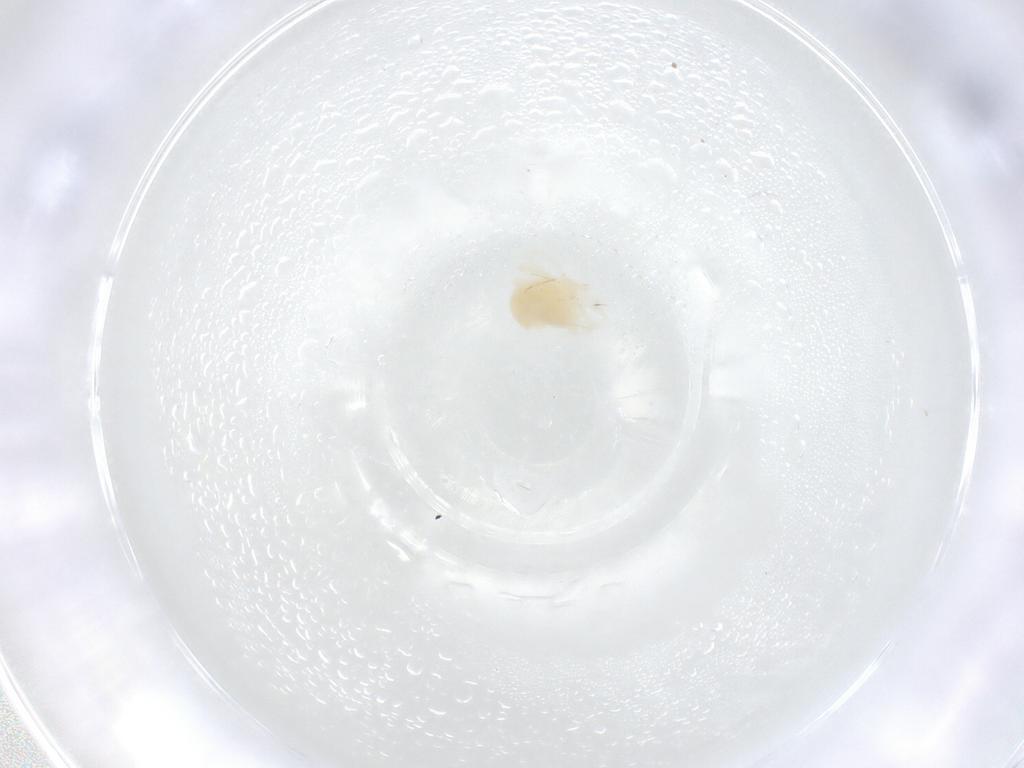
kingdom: Animalia
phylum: Arthropoda
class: Arachnida
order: Trombidiformes
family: Anystidae
